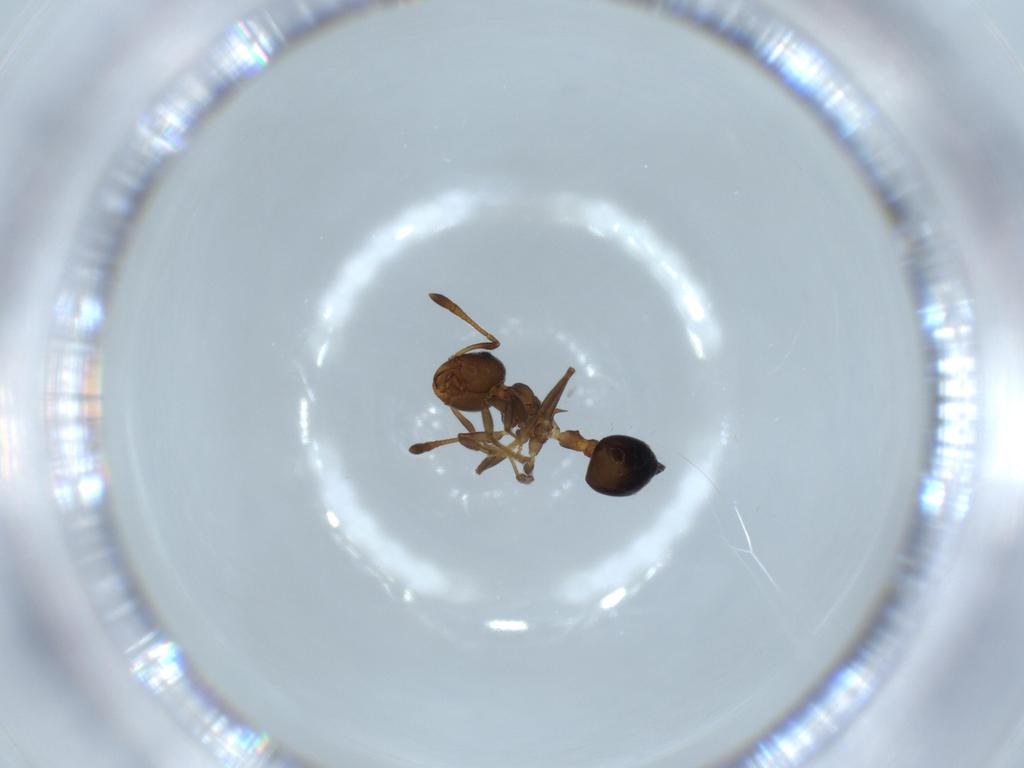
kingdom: Animalia
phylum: Arthropoda
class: Insecta
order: Hymenoptera
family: Formicidae
